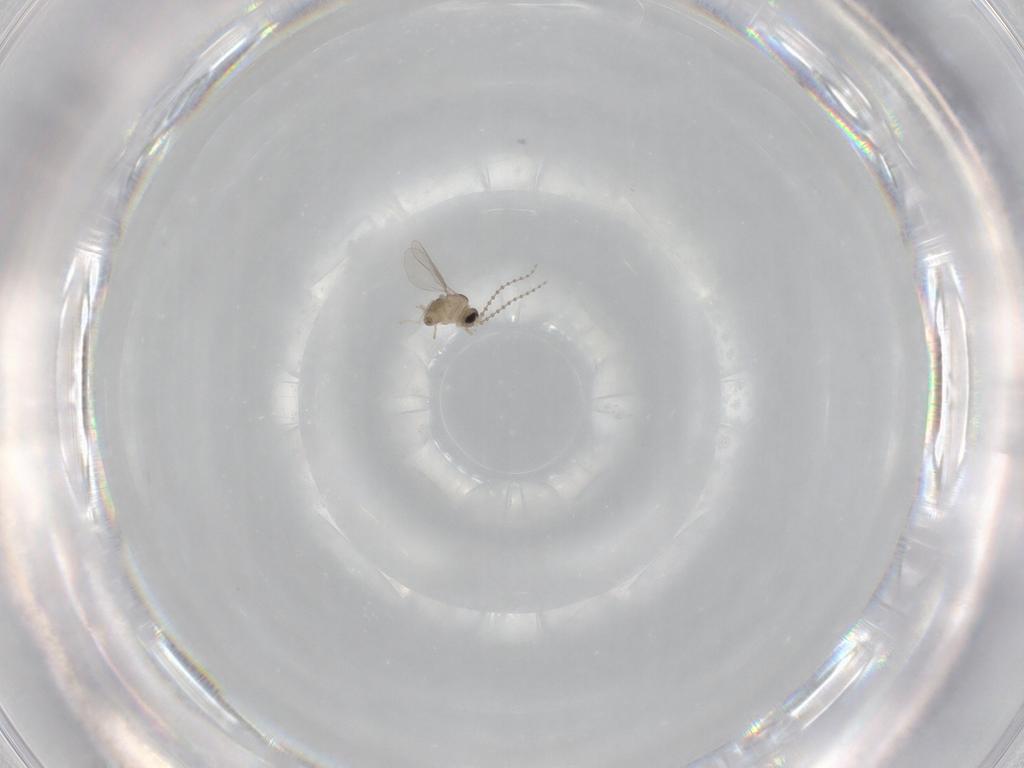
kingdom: Animalia
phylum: Arthropoda
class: Insecta
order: Diptera
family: Cecidomyiidae
